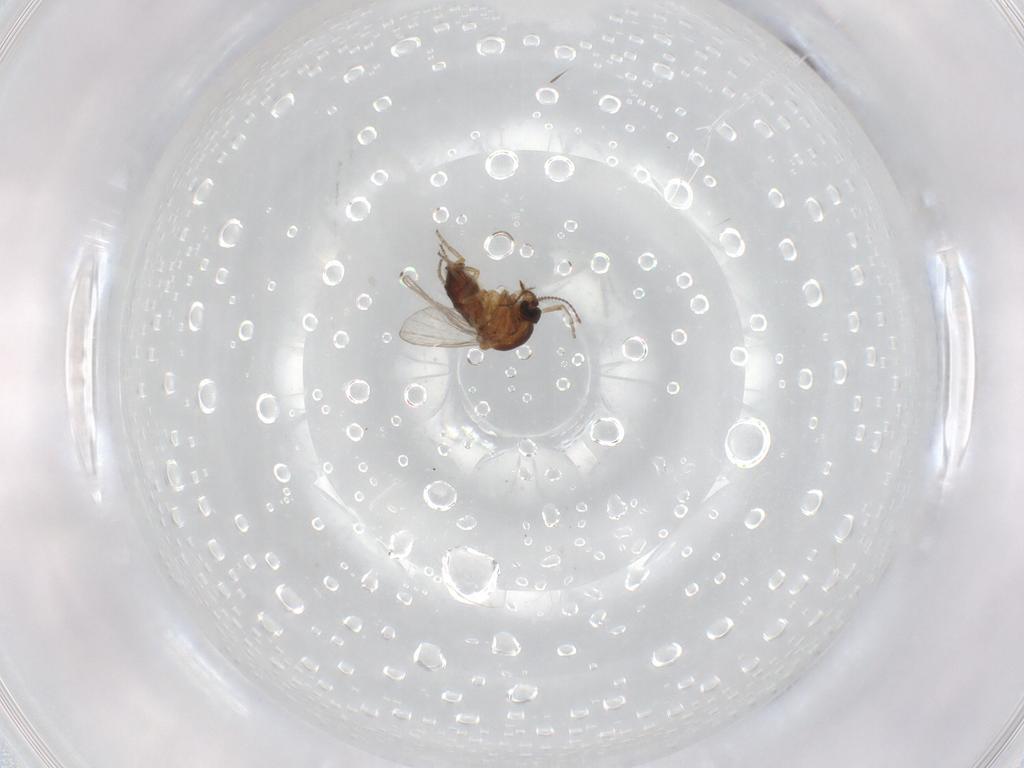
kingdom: Animalia
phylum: Arthropoda
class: Insecta
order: Diptera
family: Ceratopogonidae
